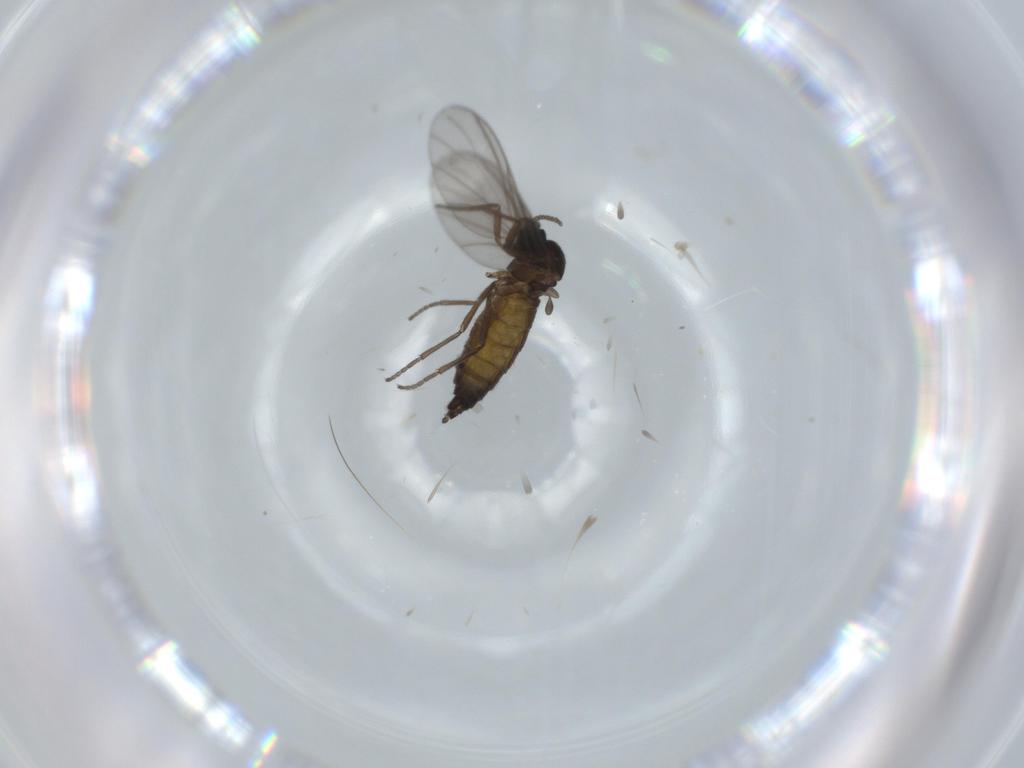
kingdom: Animalia
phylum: Arthropoda
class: Insecta
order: Diptera
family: Sciaridae
